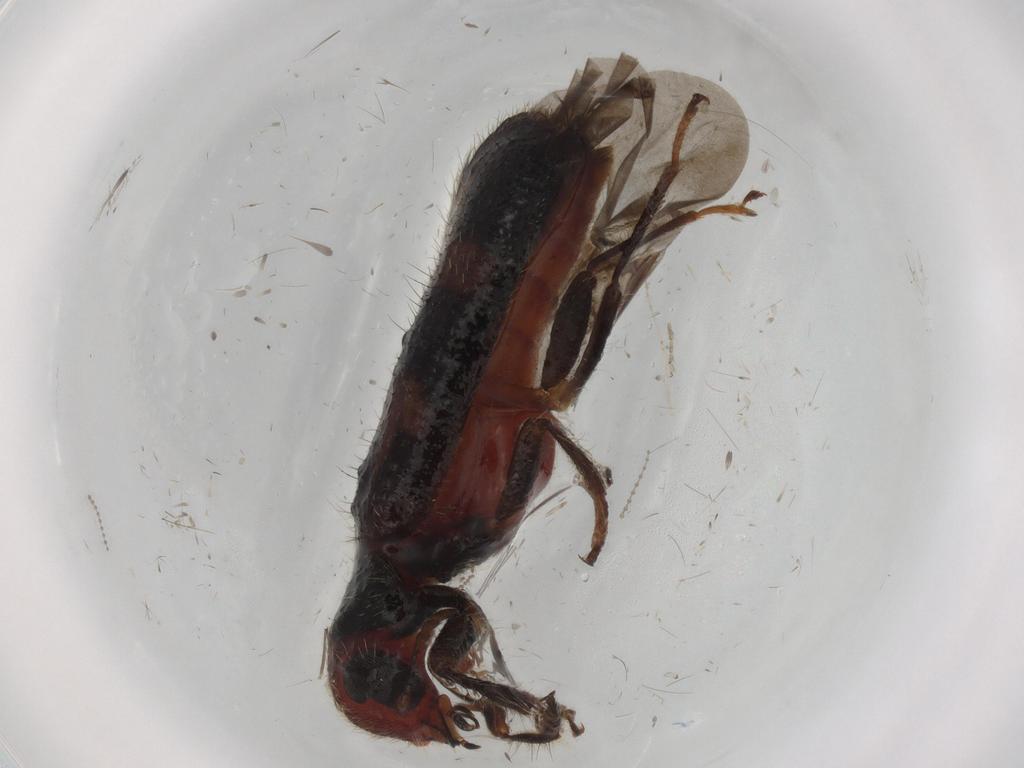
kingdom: Animalia
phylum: Arthropoda
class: Insecta
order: Coleoptera
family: Cleridae
